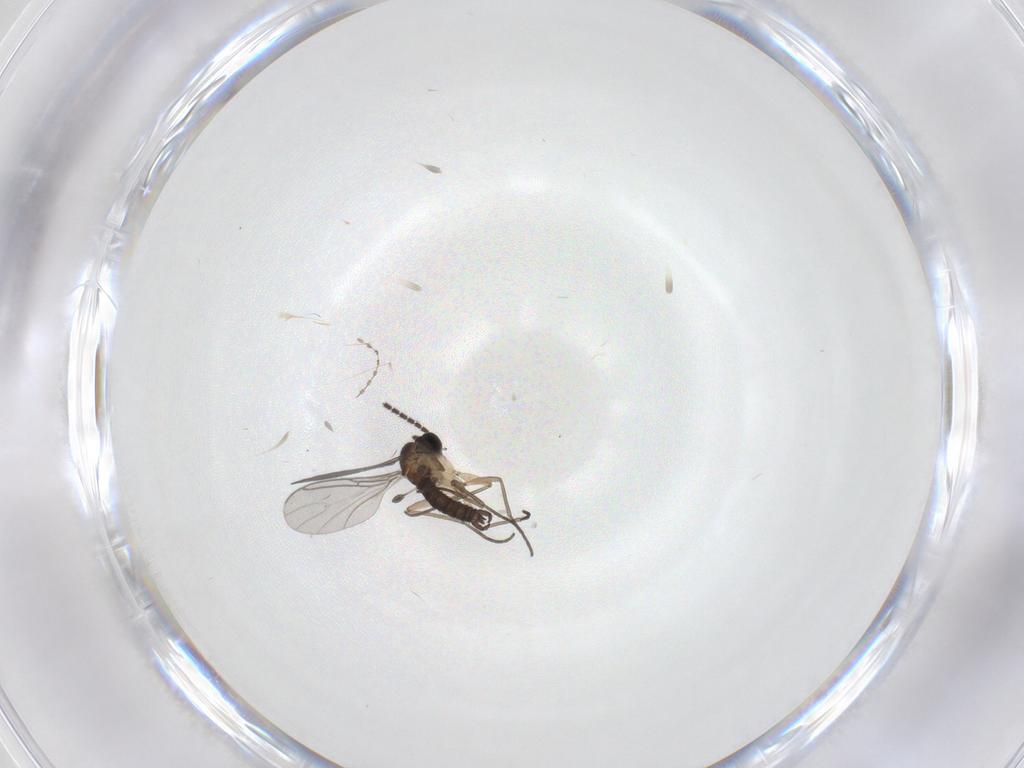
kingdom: Animalia
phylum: Arthropoda
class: Insecta
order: Diptera
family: Sciaridae
